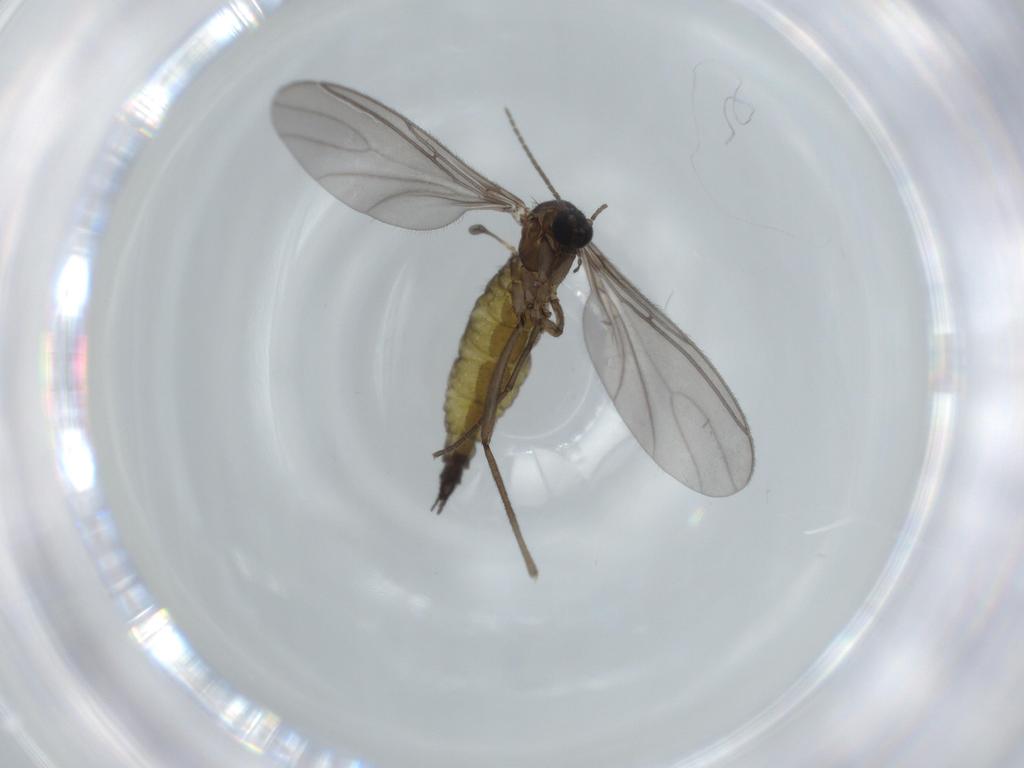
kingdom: Animalia
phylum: Arthropoda
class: Insecta
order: Diptera
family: Sciaridae
